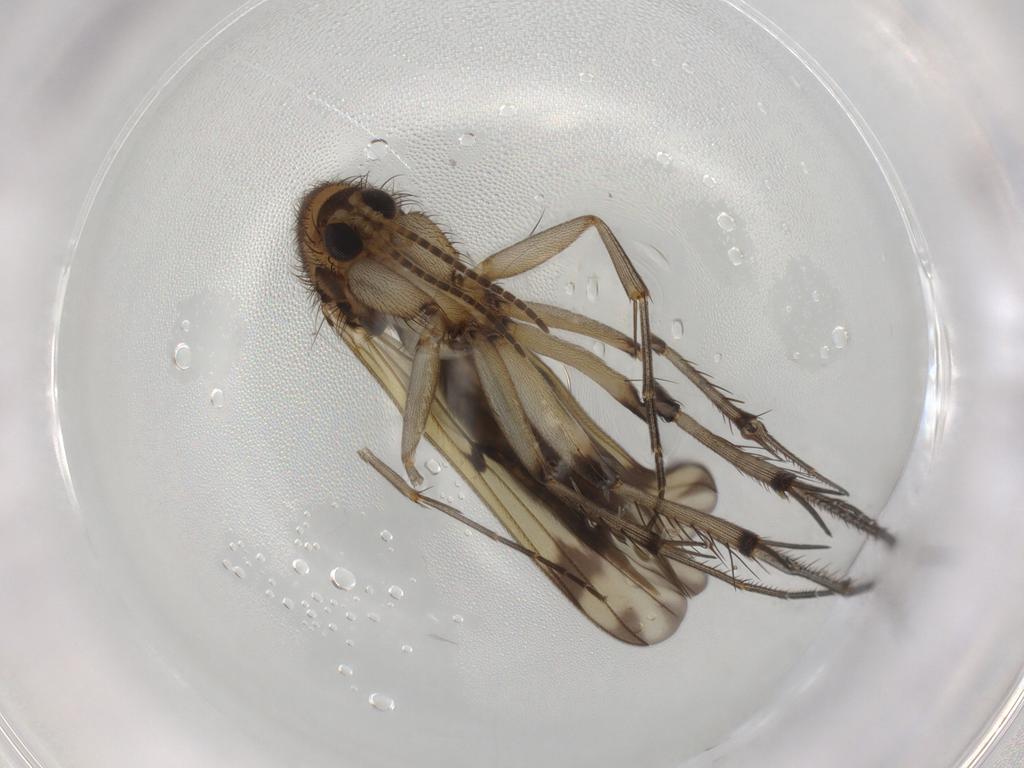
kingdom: Animalia
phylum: Arthropoda
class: Insecta
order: Diptera
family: Mycetophilidae
